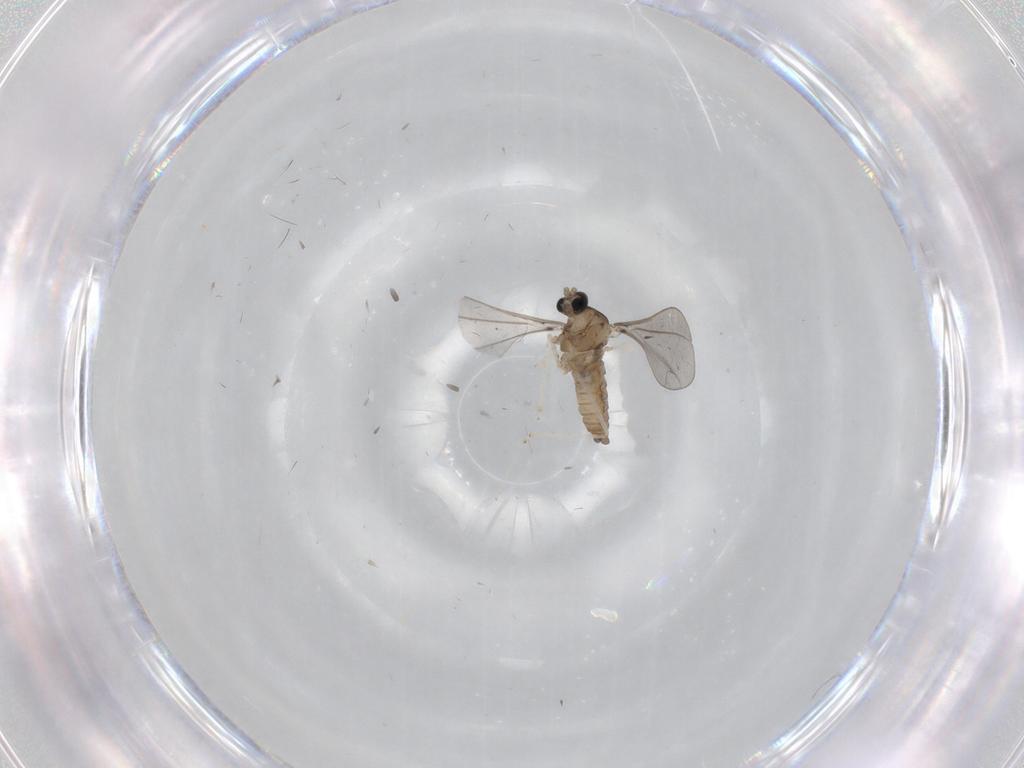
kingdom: Animalia
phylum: Arthropoda
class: Insecta
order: Diptera
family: Cecidomyiidae
